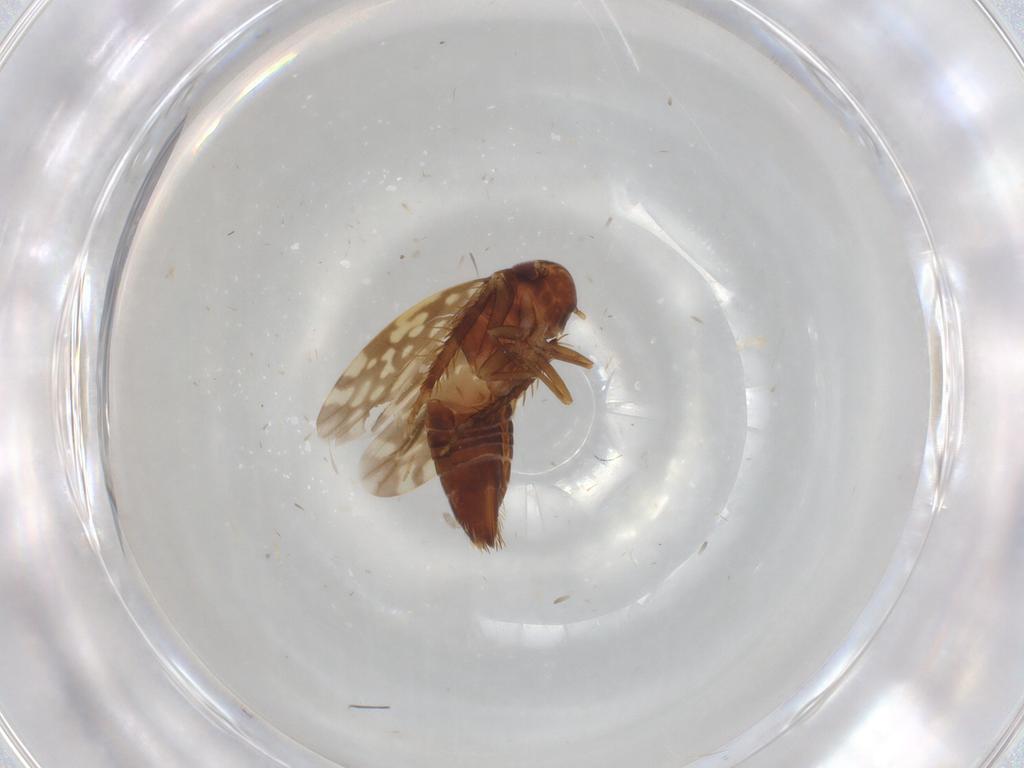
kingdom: Animalia
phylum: Arthropoda
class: Insecta
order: Hemiptera
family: Cicadellidae
